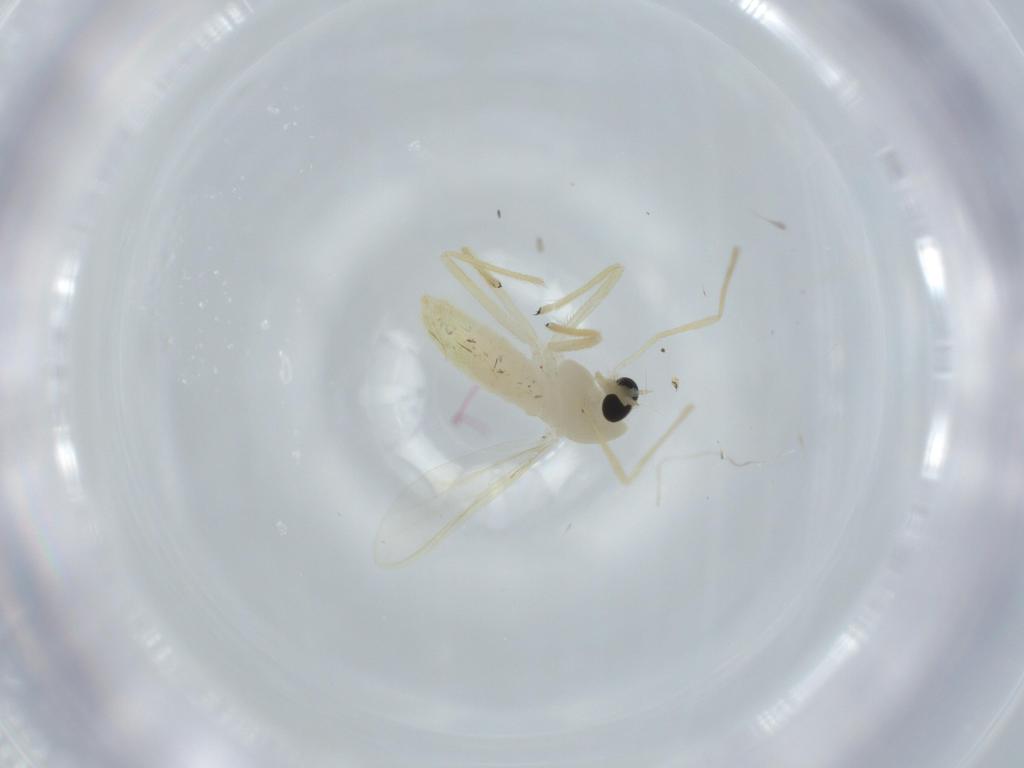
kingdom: Animalia
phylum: Arthropoda
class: Insecta
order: Diptera
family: Chironomidae
